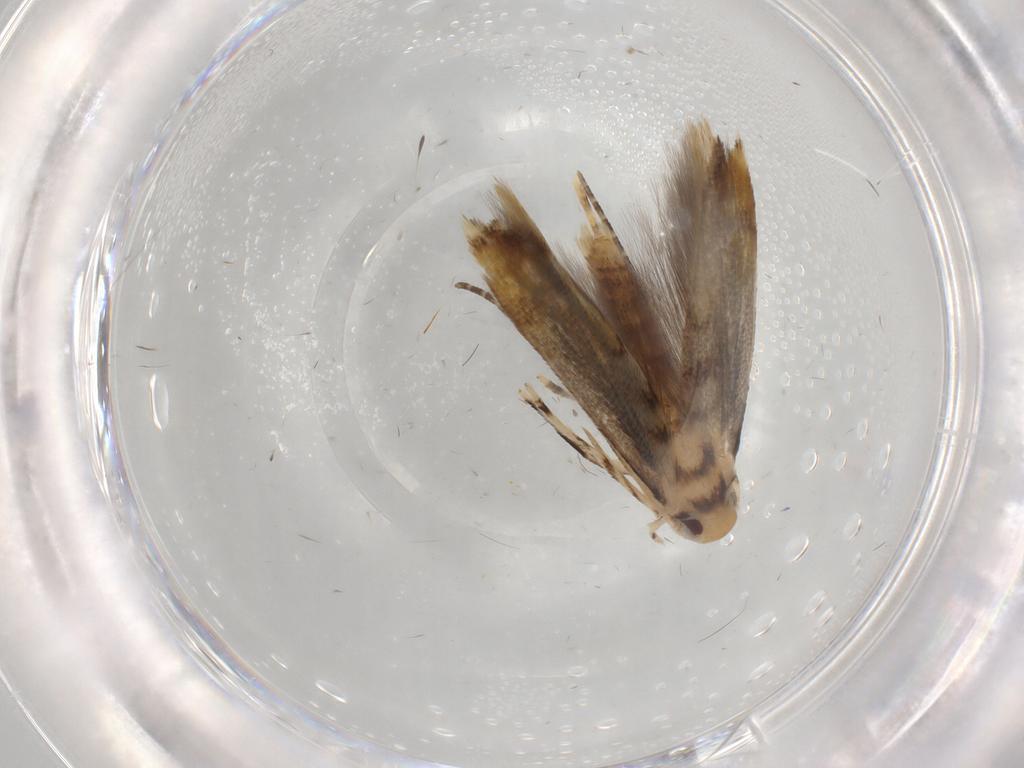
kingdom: Animalia
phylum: Arthropoda
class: Insecta
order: Lepidoptera
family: Momphidae
